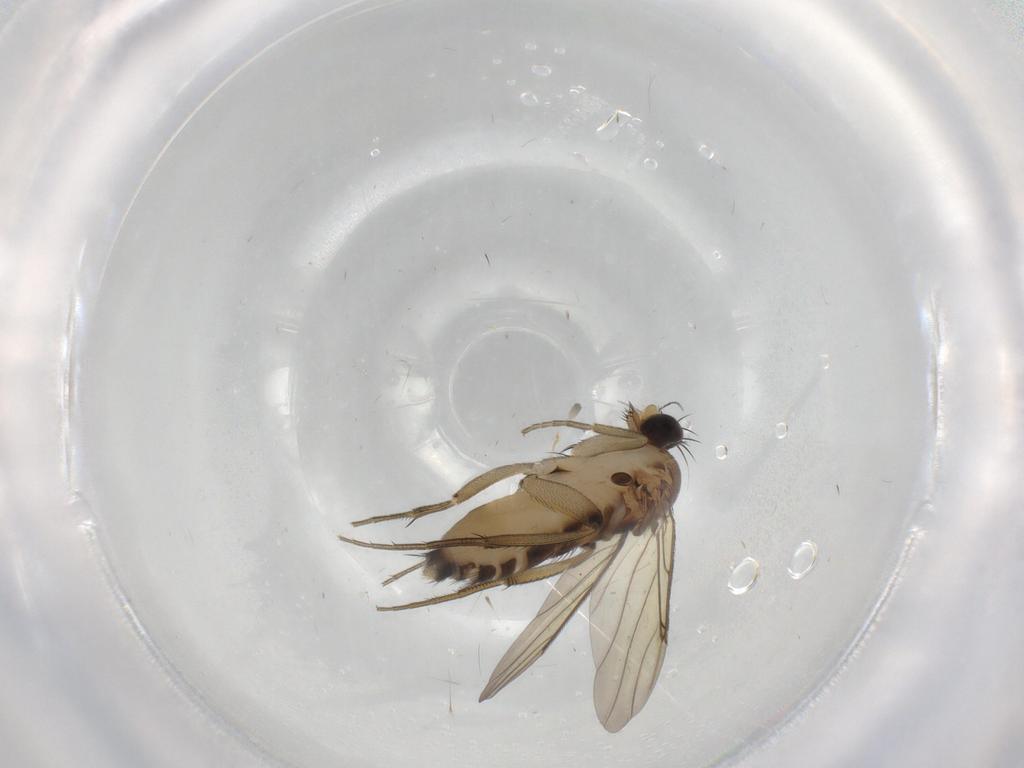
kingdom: Animalia
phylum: Arthropoda
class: Insecta
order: Diptera
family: Phoridae
